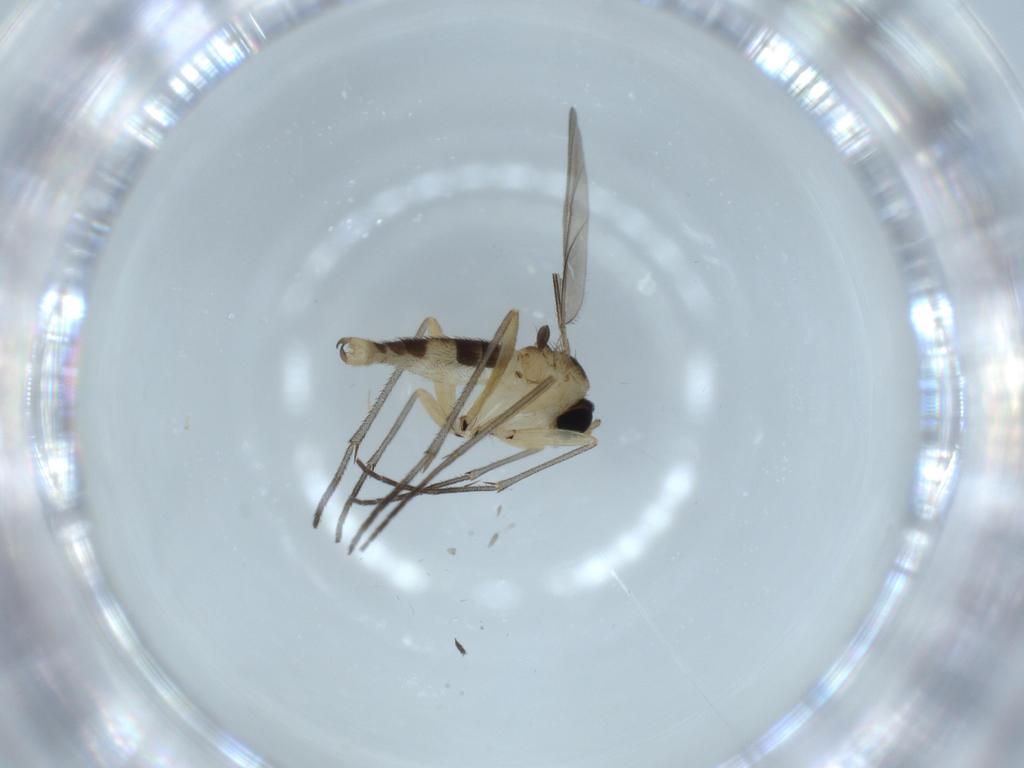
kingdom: Animalia
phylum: Arthropoda
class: Insecta
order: Diptera
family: Sciaridae
